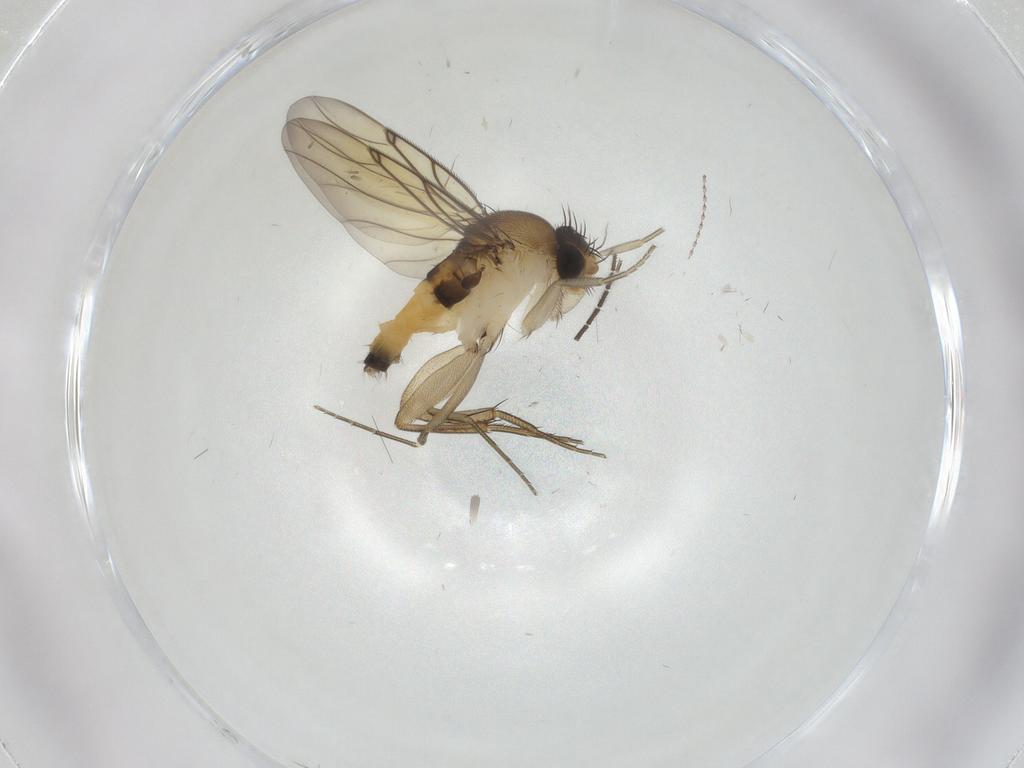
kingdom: Animalia
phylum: Arthropoda
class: Insecta
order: Diptera
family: Cecidomyiidae
